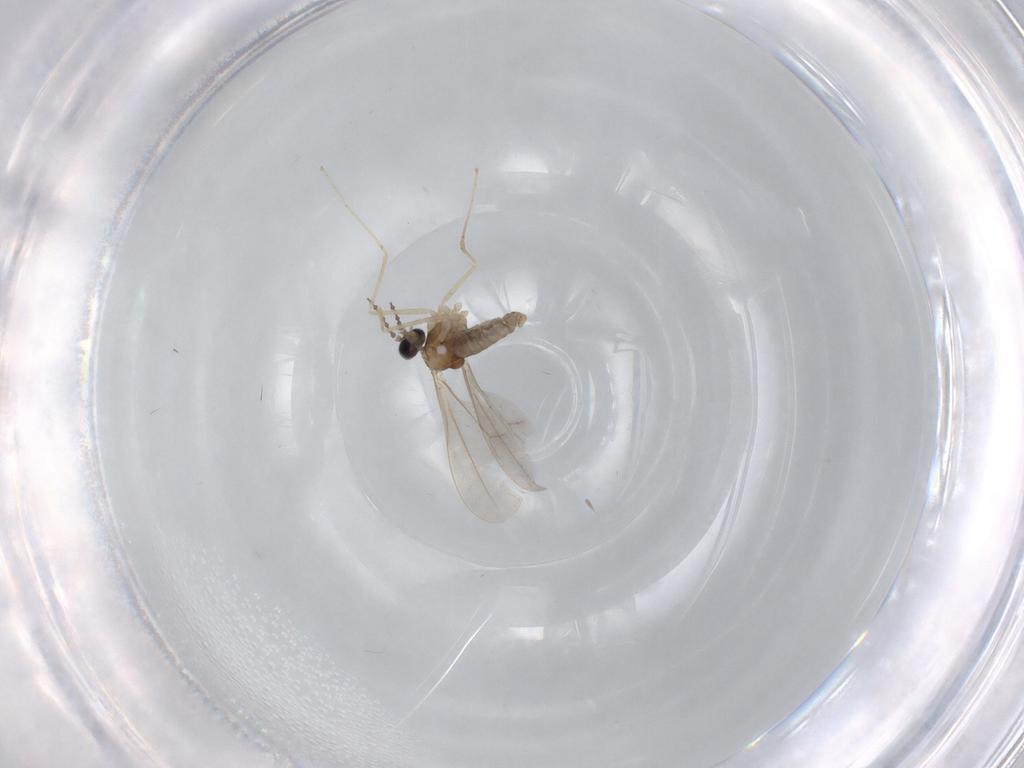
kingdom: Animalia
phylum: Arthropoda
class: Insecta
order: Diptera
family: Cecidomyiidae
